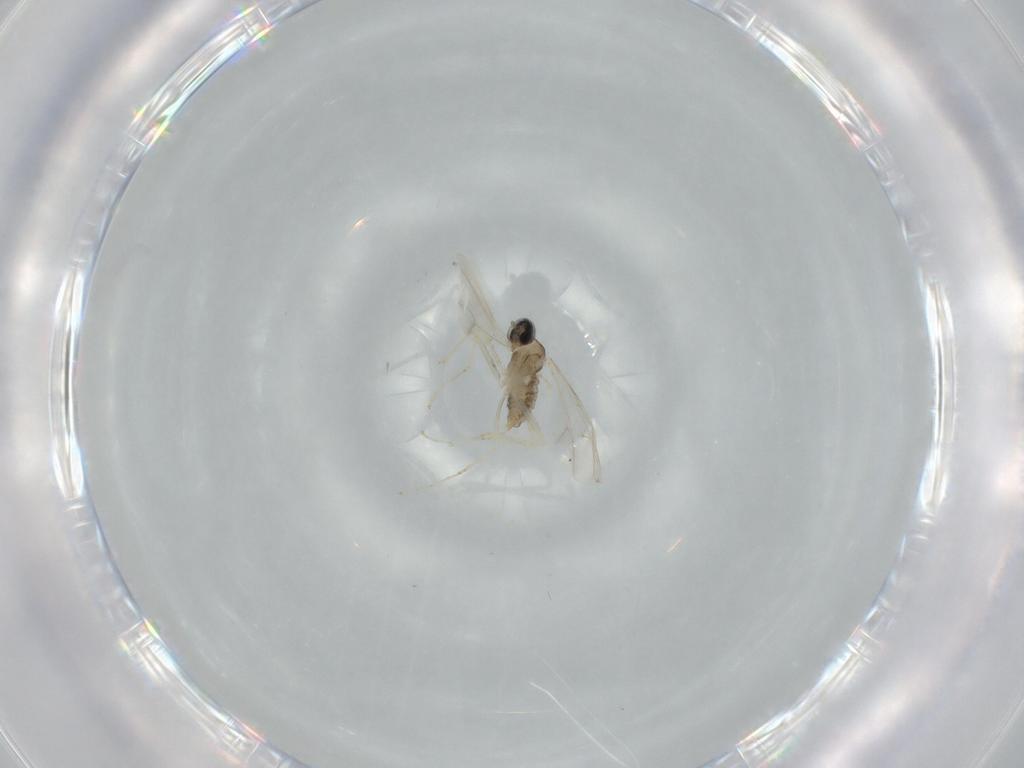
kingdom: Animalia
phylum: Arthropoda
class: Insecta
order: Diptera
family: Cecidomyiidae
